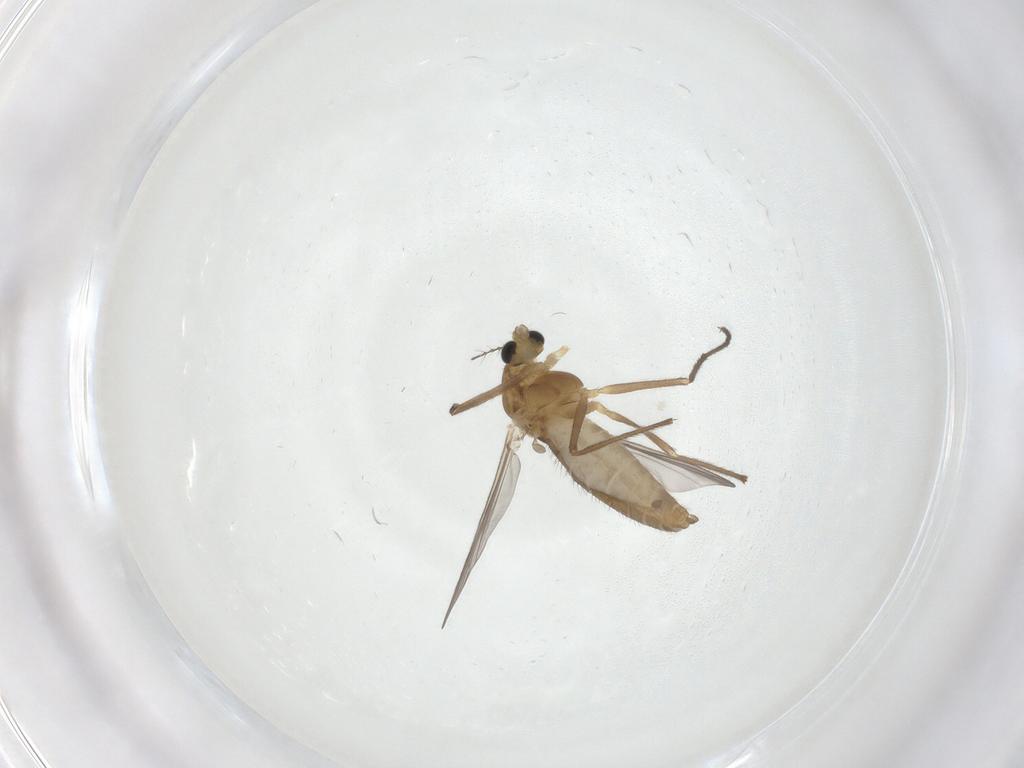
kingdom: Animalia
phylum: Arthropoda
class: Insecta
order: Diptera
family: Chironomidae
